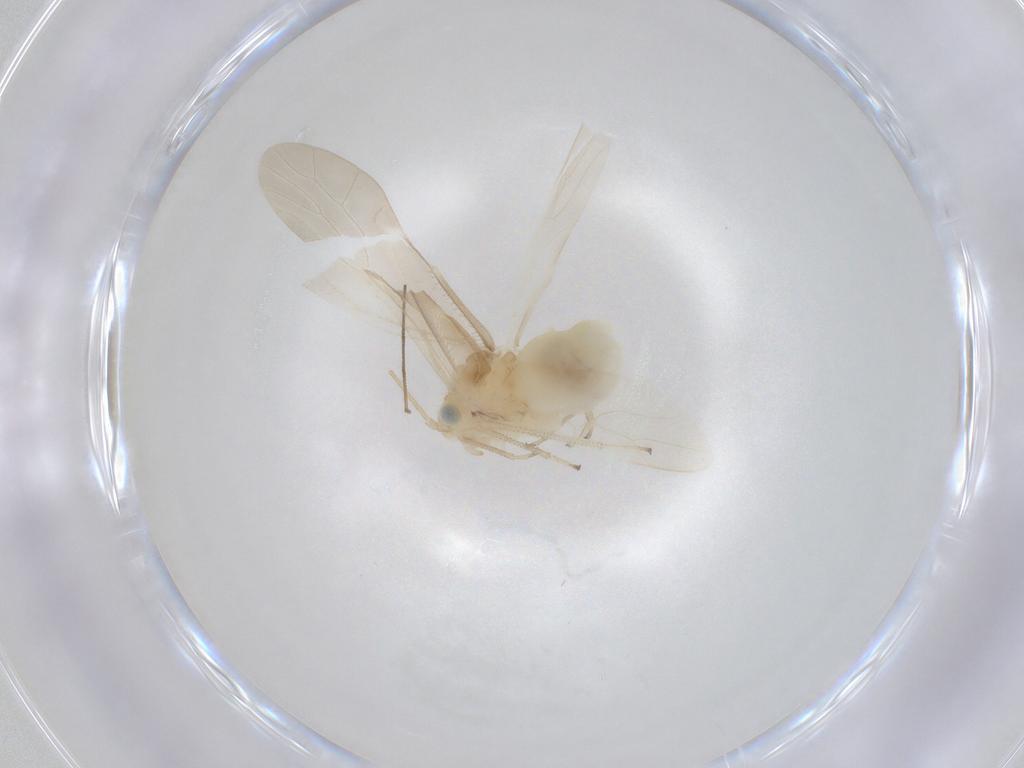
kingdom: Animalia
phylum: Arthropoda
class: Insecta
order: Psocodea
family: Caeciliusidae
